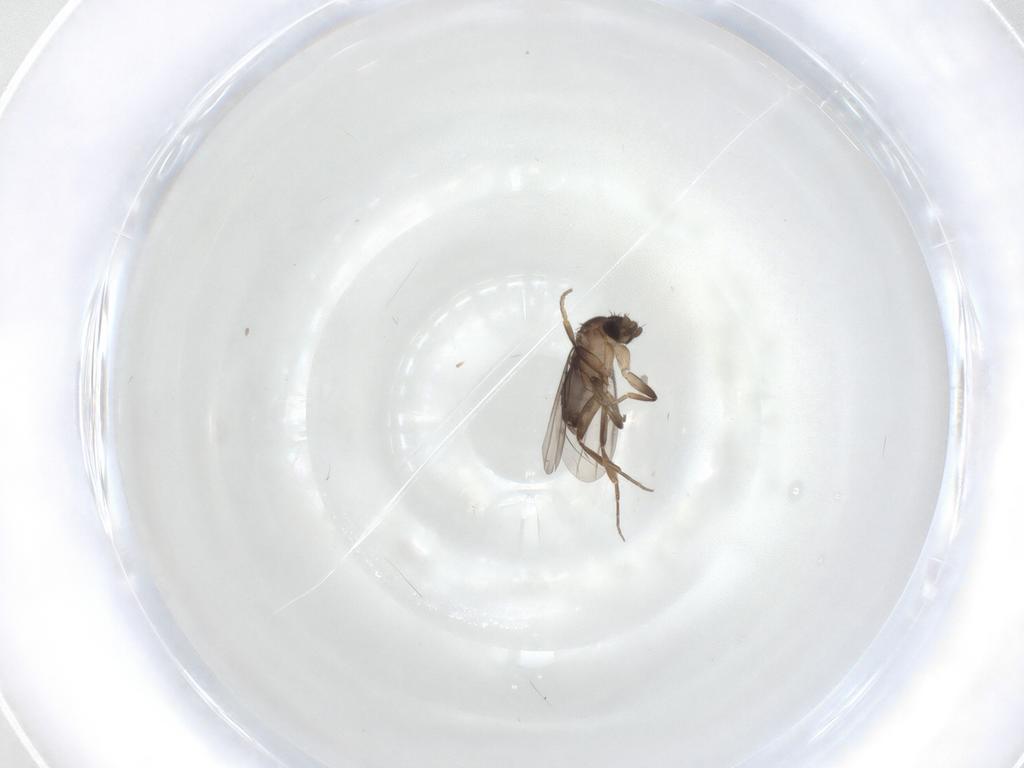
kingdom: Animalia
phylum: Arthropoda
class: Insecta
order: Diptera
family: Phoridae
